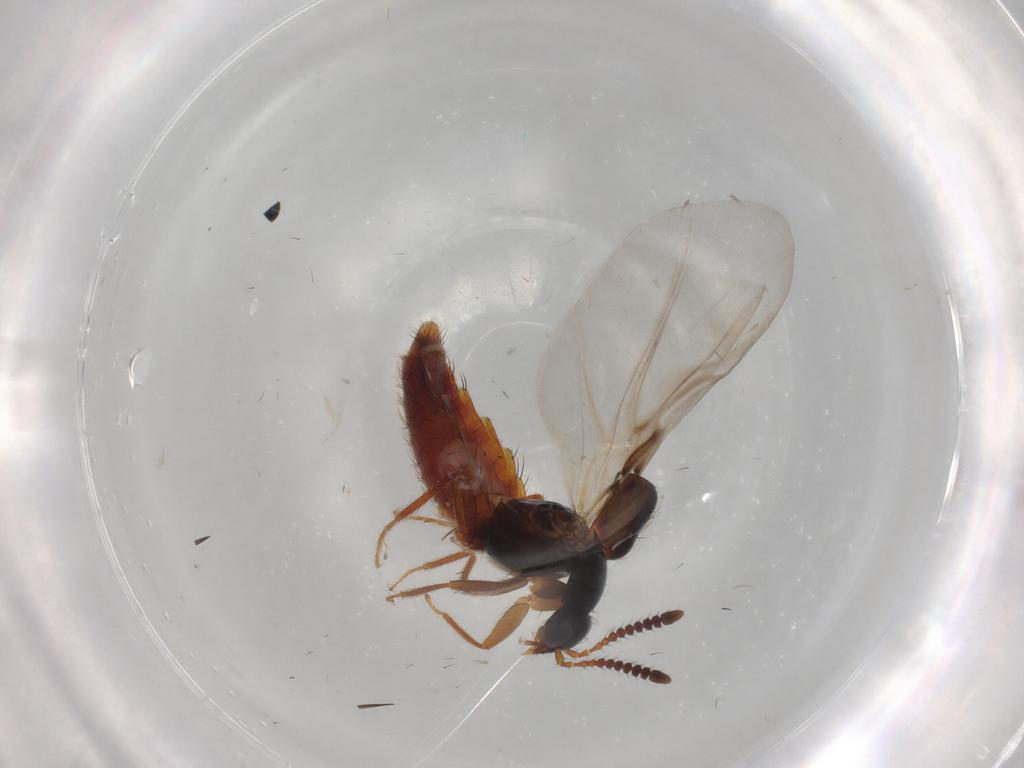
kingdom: Animalia
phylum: Arthropoda
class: Insecta
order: Coleoptera
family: Staphylinidae
